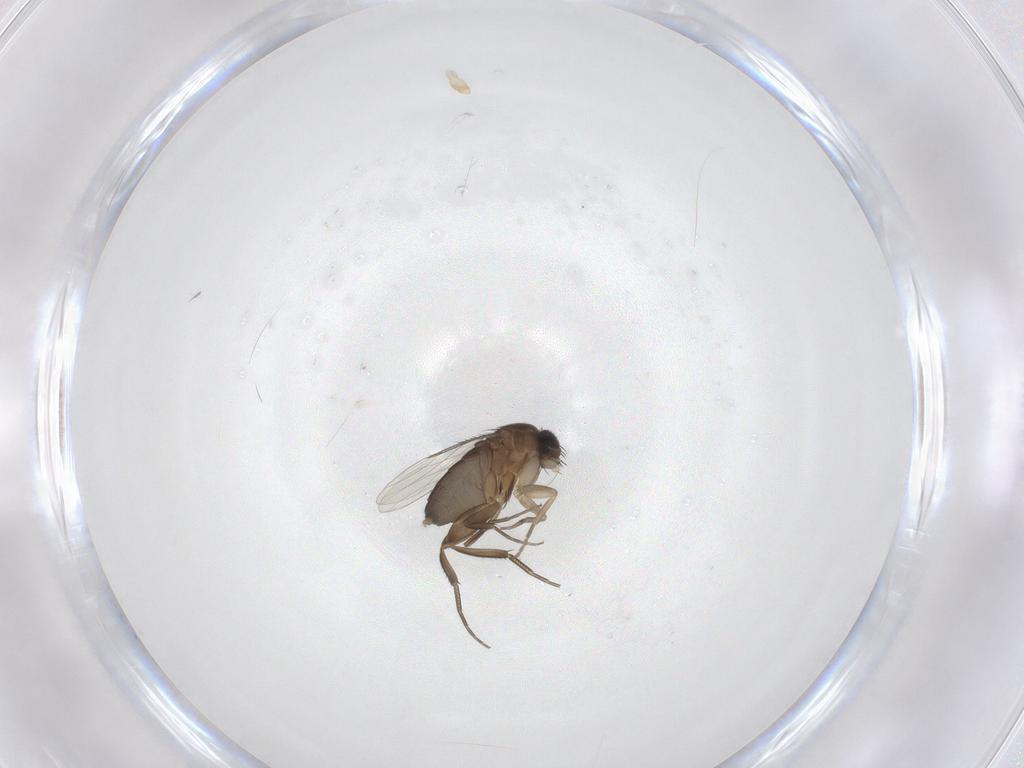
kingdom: Animalia
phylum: Arthropoda
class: Insecta
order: Diptera
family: Phoridae
